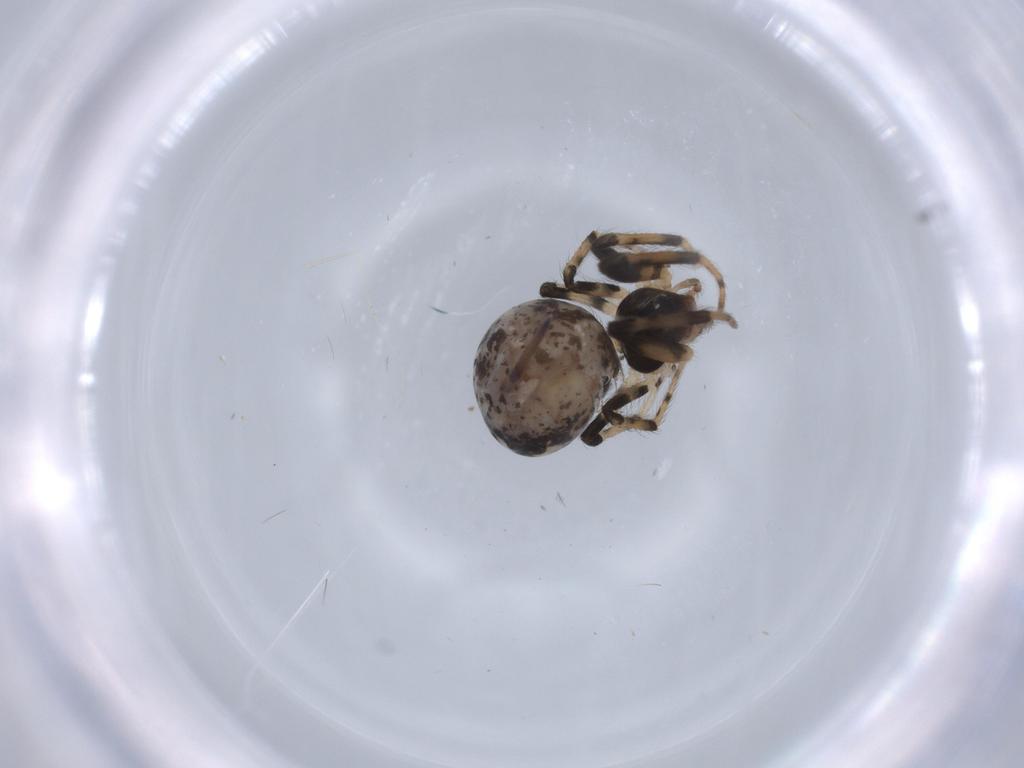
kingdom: Animalia
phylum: Arthropoda
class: Arachnida
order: Araneae
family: Mysmenidae
